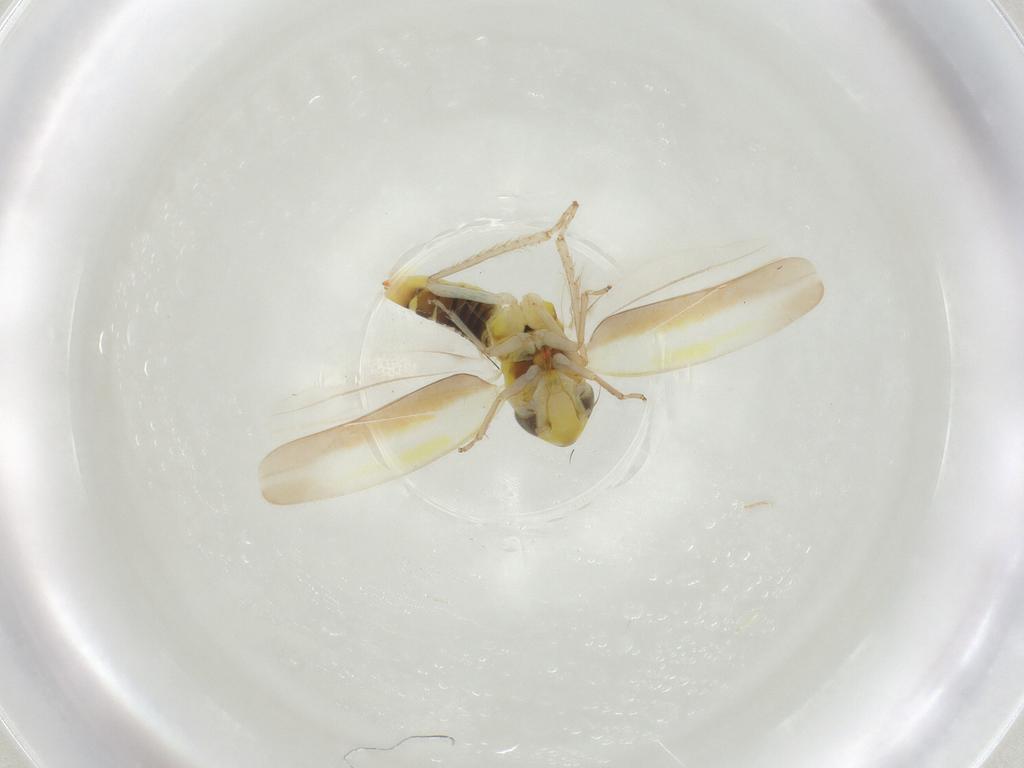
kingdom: Animalia
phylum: Arthropoda
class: Insecta
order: Hemiptera
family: Cicadellidae
